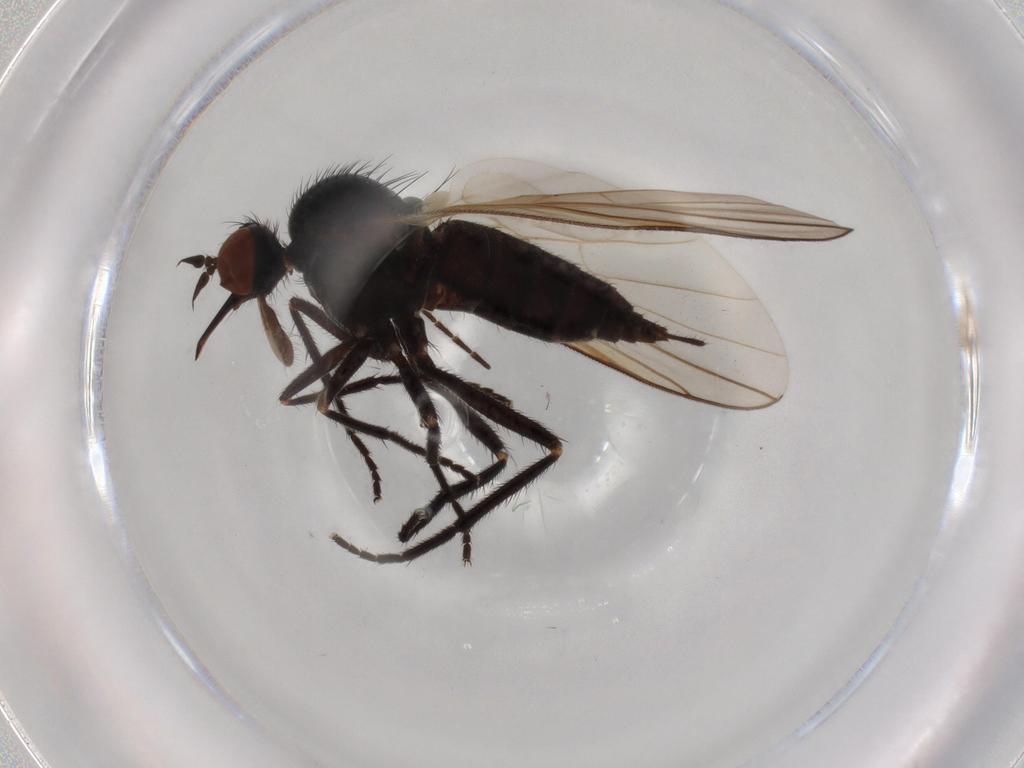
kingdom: Animalia
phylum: Arthropoda
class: Insecta
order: Diptera
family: Empididae
